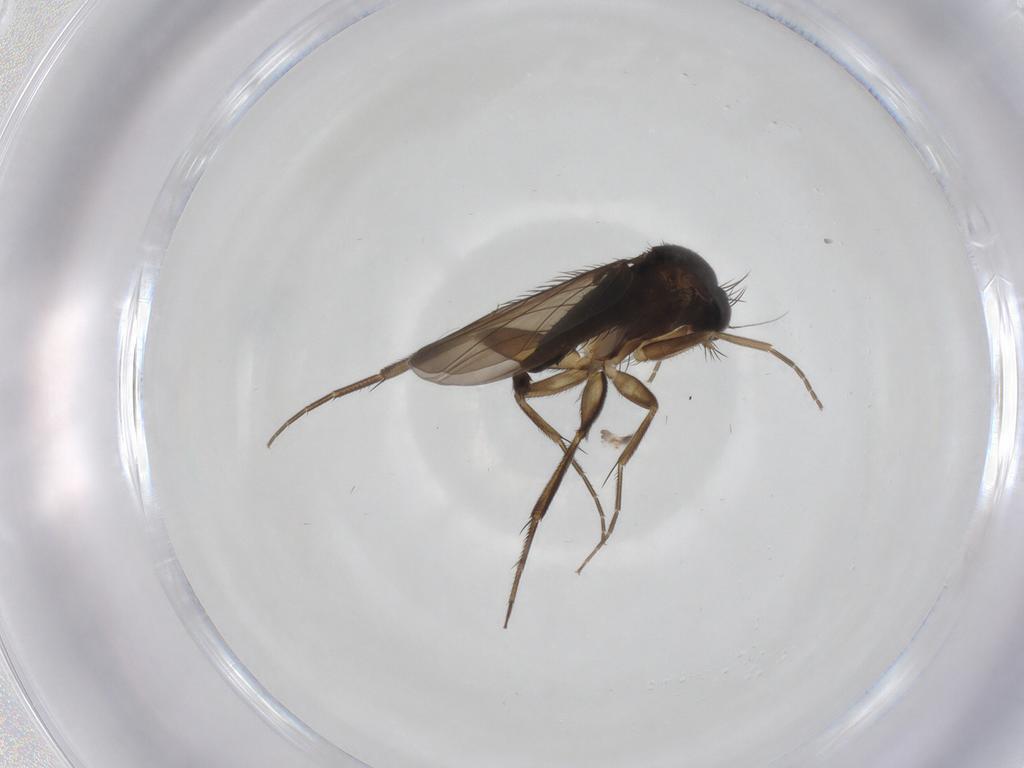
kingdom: Animalia
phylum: Arthropoda
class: Insecta
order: Diptera
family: Phoridae
